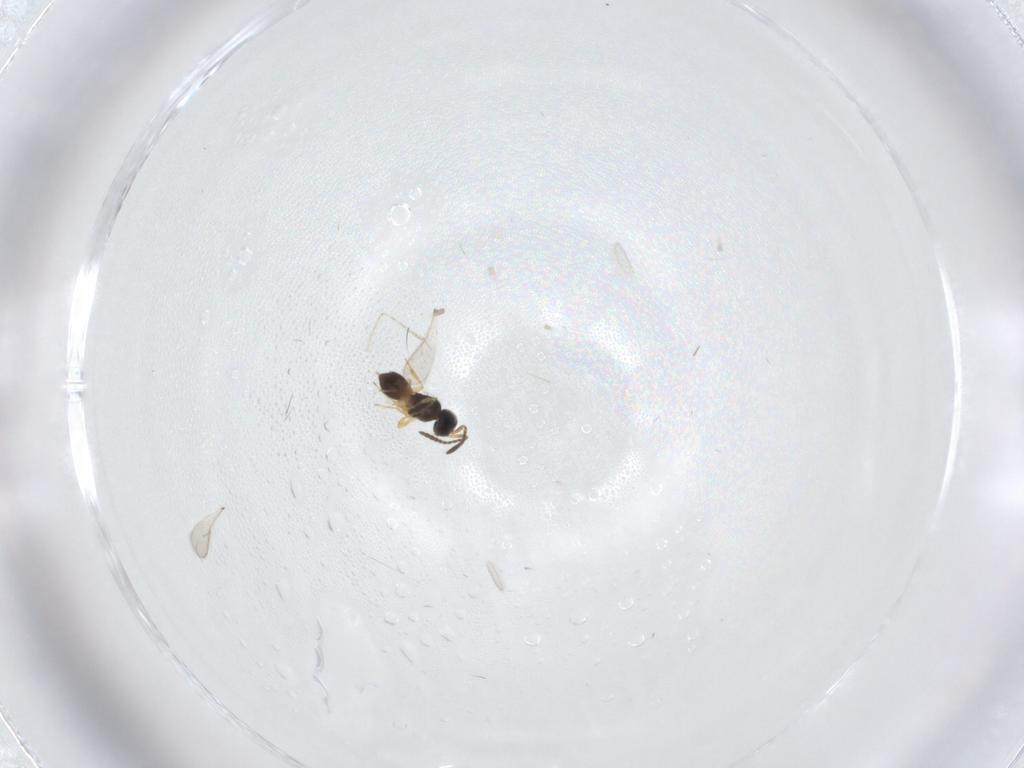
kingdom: Animalia
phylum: Arthropoda
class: Insecta
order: Hymenoptera
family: Scelionidae
